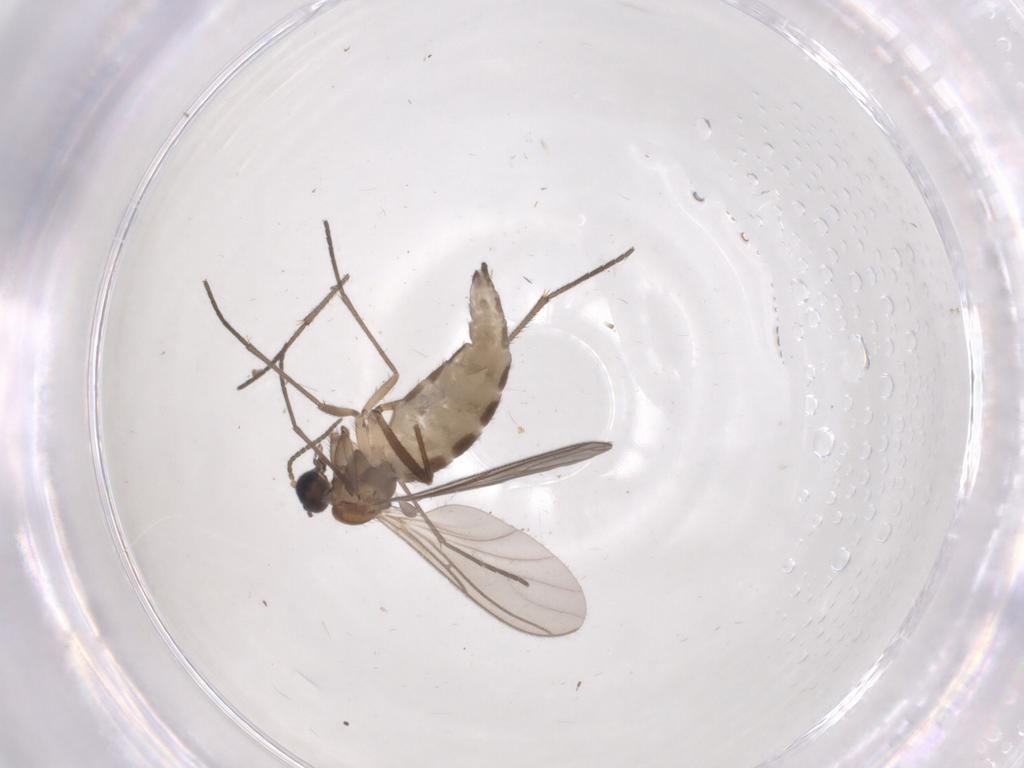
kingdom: Animalia
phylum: Arthropoda
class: Insecta
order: Diptera
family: Sciaridae
